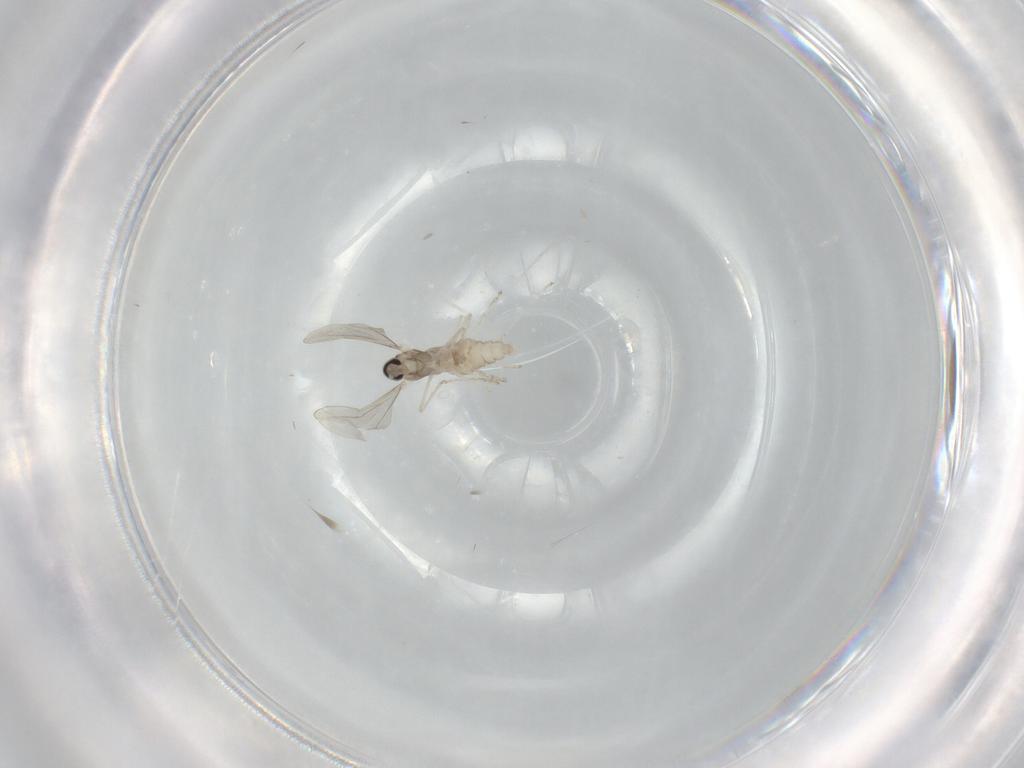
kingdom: Animalia
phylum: Arthropoda
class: Insecta
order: Diptera
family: Cecidomyiidae
